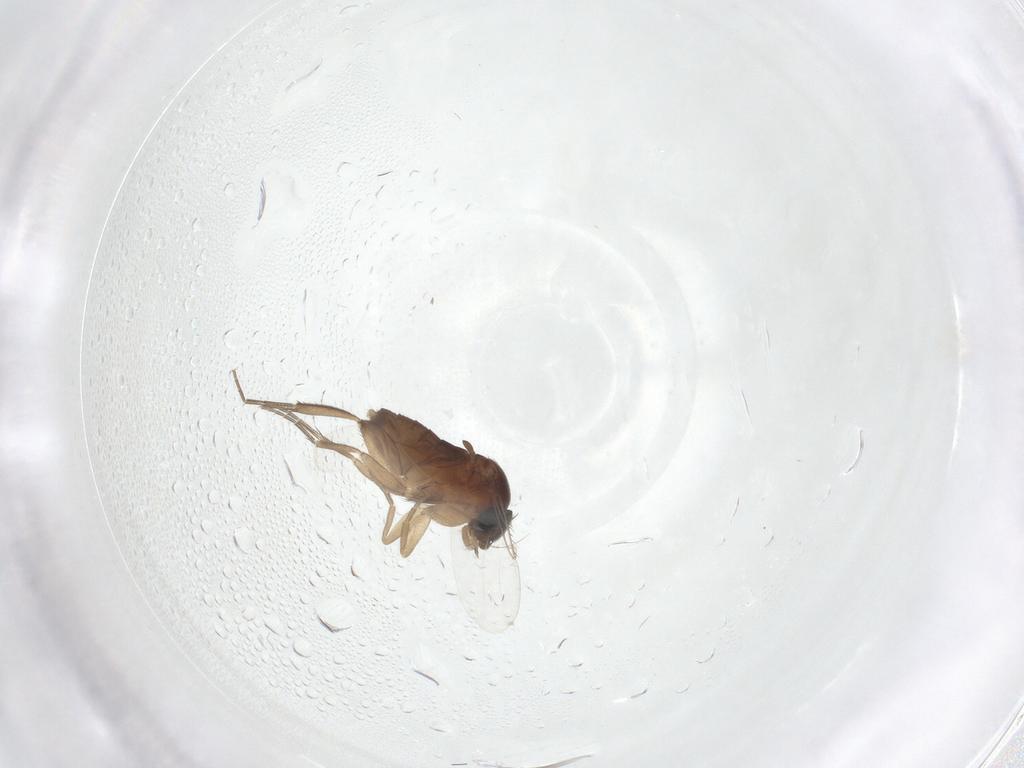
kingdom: Animalia
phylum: Arthropoda
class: Insecta
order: Diptera
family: Phoridae
